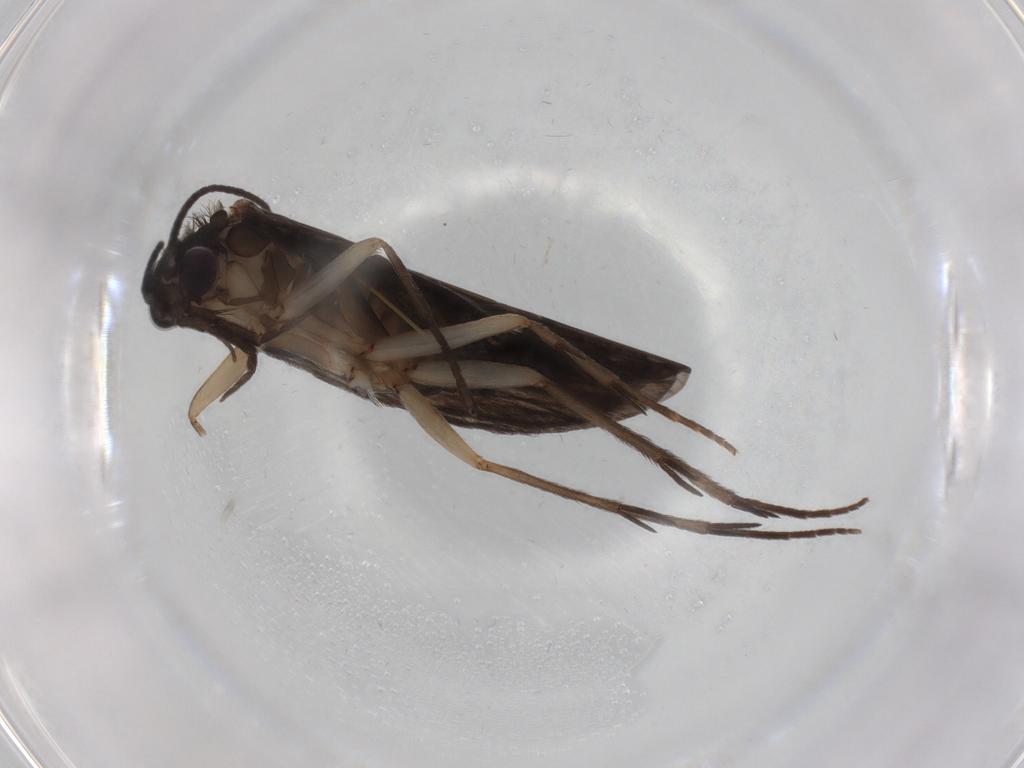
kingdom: Animalia
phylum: Arthropoda
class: Insecta
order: Trichoptera
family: Philopotamidae
